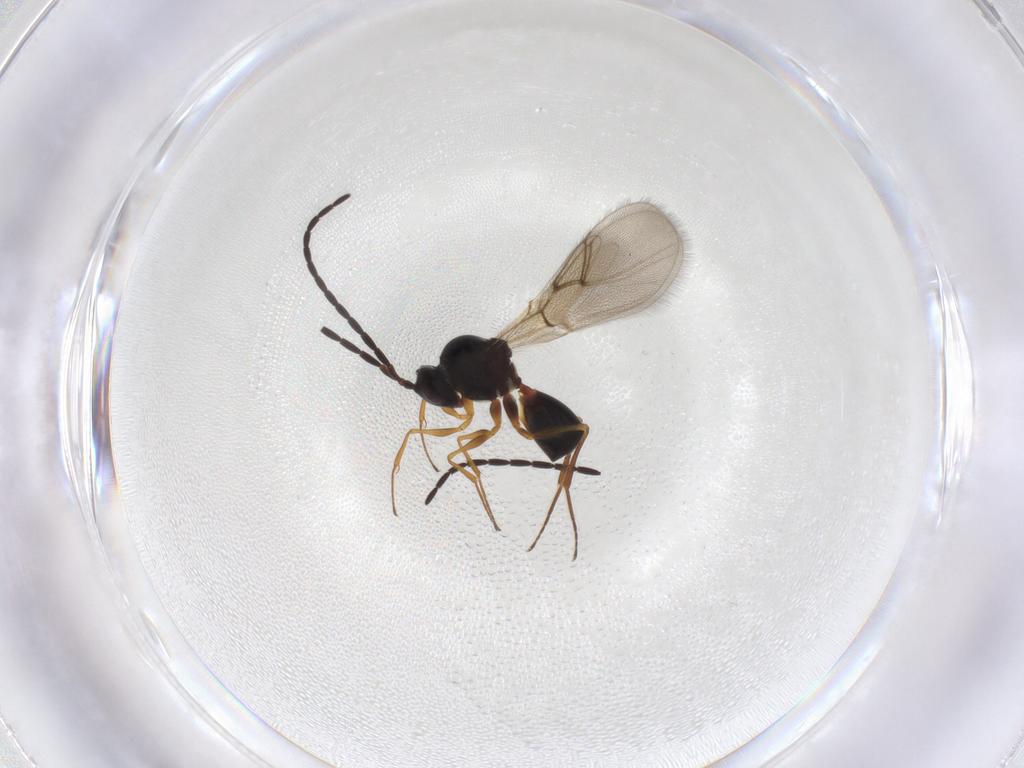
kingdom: Animalia
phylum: Arthropoda
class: Insecta
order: Hymenoptera
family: Figitidae
